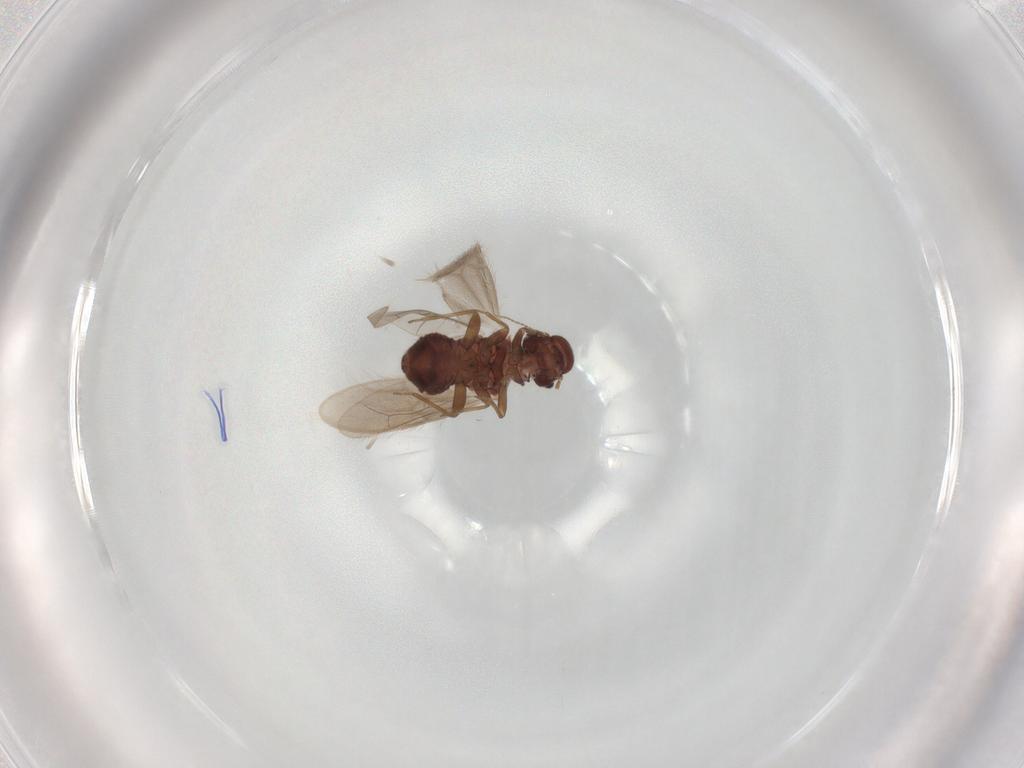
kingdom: Animalia
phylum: Arthropoda
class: Insecta
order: Psocodea
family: Archipsocidae
